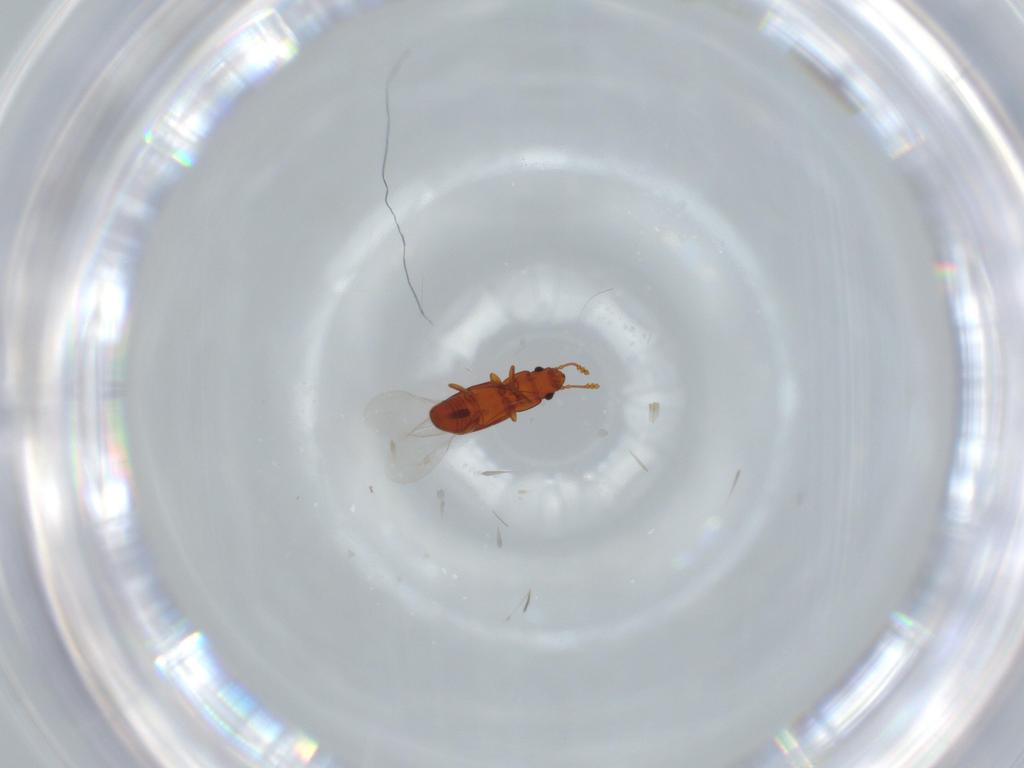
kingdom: Animalia
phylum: Arthropoda
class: Insecta
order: Coleoptera
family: Smicripidae
